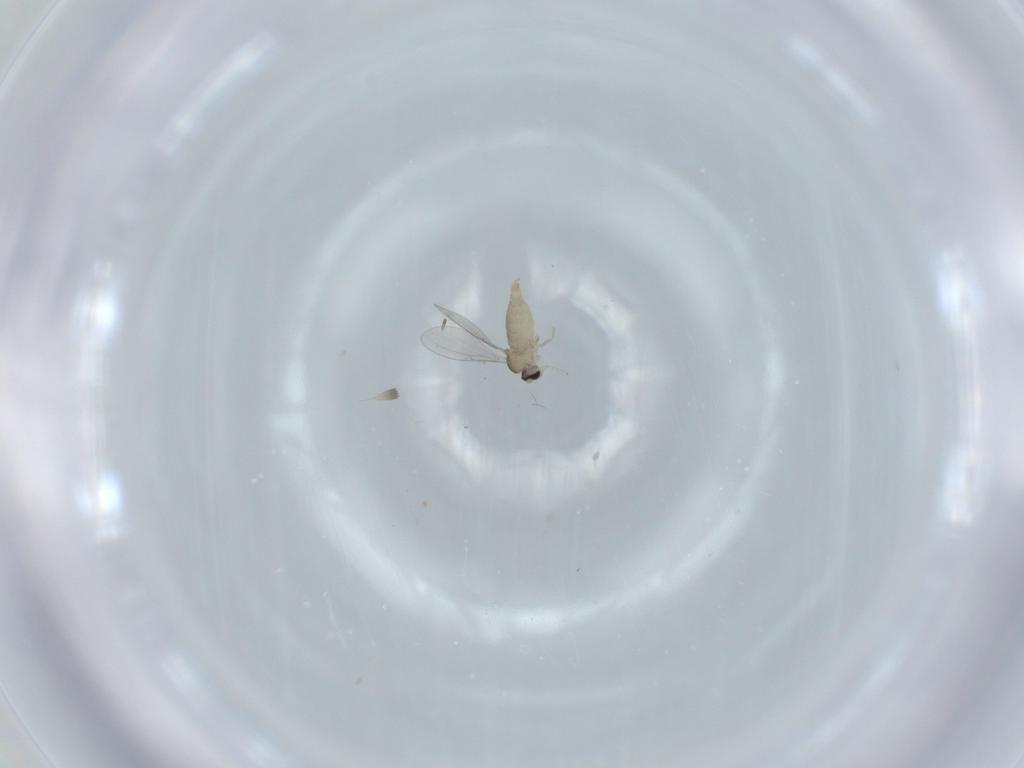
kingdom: Animalia
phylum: Arthropoda
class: Insecta
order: Diptera
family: Cecidomyiidae
